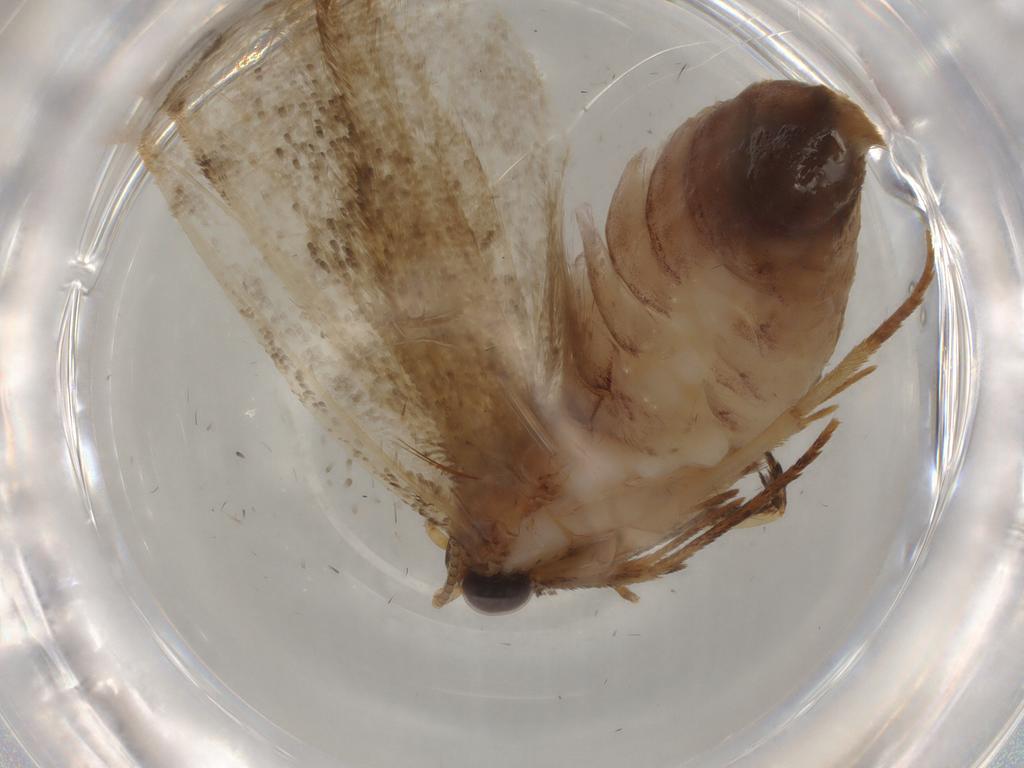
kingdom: Animalia
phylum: Arthropoda
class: Insecta
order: Lepidoptera
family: Tineidae
